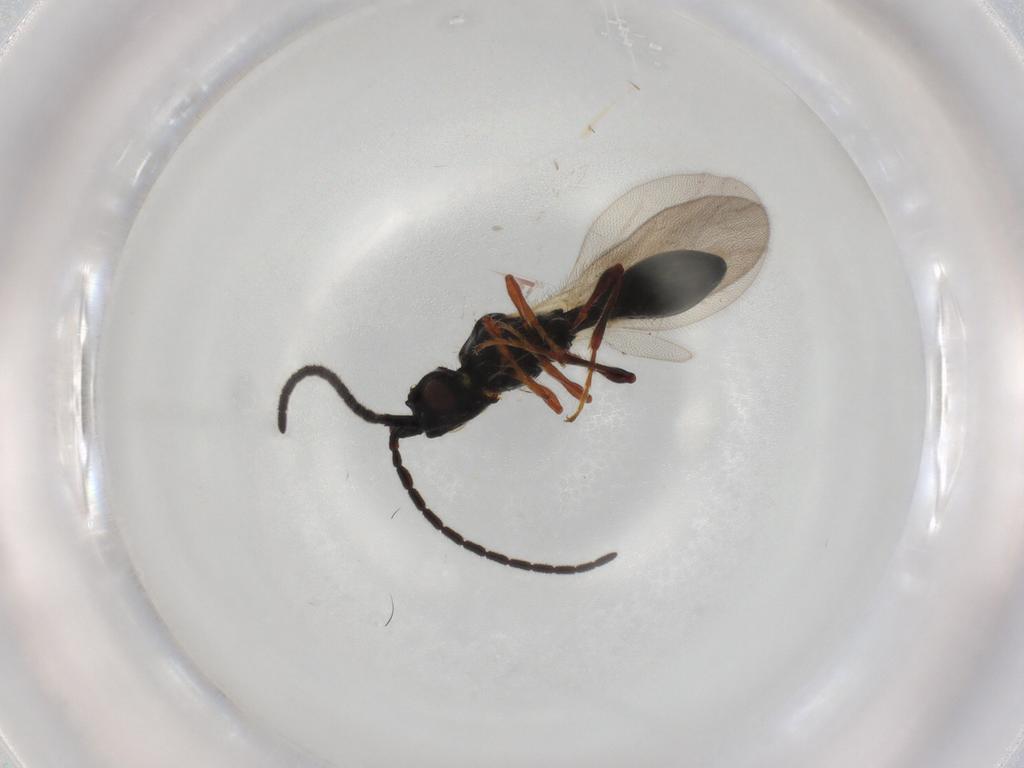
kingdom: Animalia
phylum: Arthropoda
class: Insecta
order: Hymenoptera
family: Diapriidae
